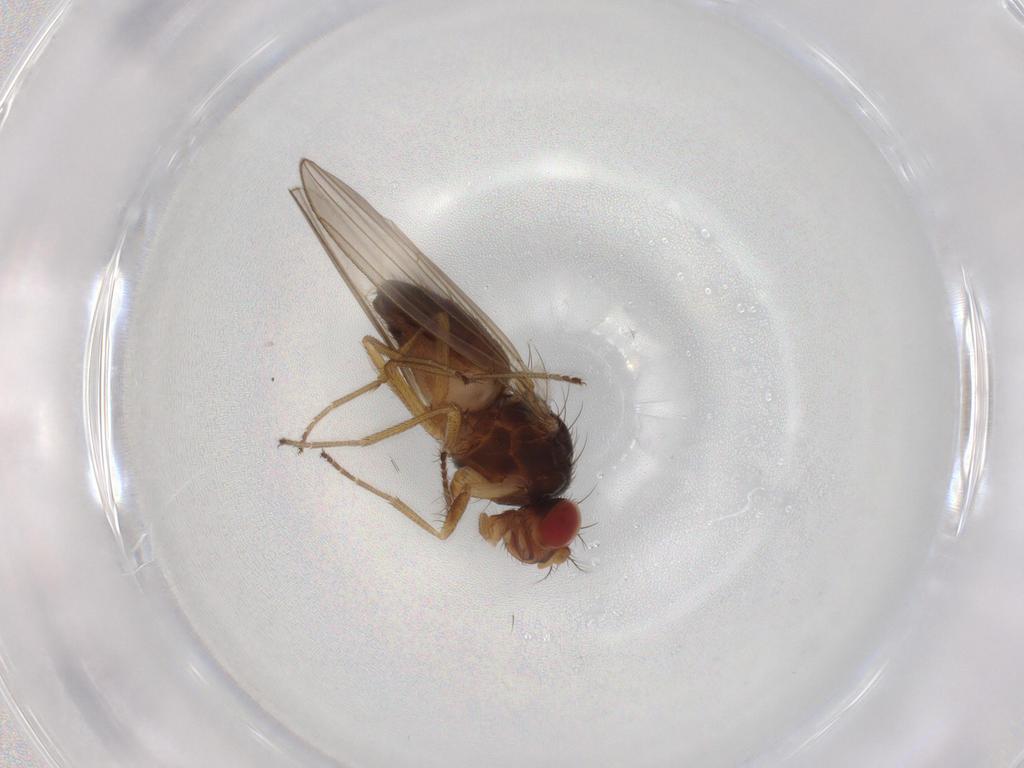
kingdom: Animalia
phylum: Arthropoda
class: Insecta
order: Diptera
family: Drosophilidae
